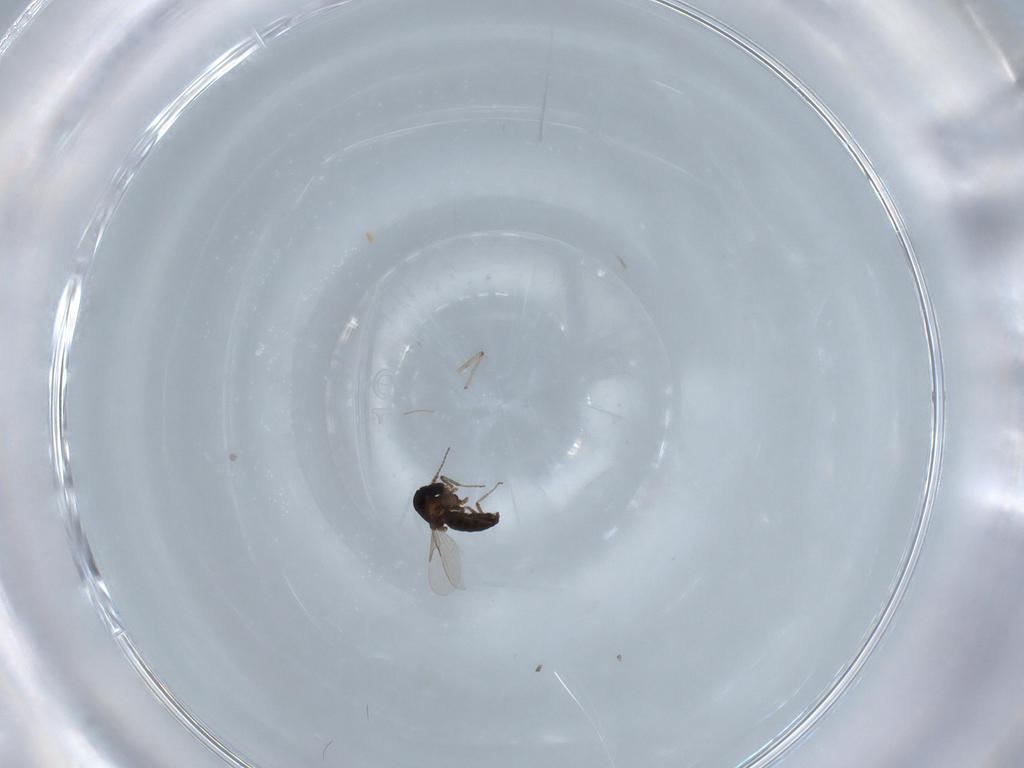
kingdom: Animalia
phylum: Arthropoda
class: Insecta
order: Diptera
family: Ceratopogonidae
